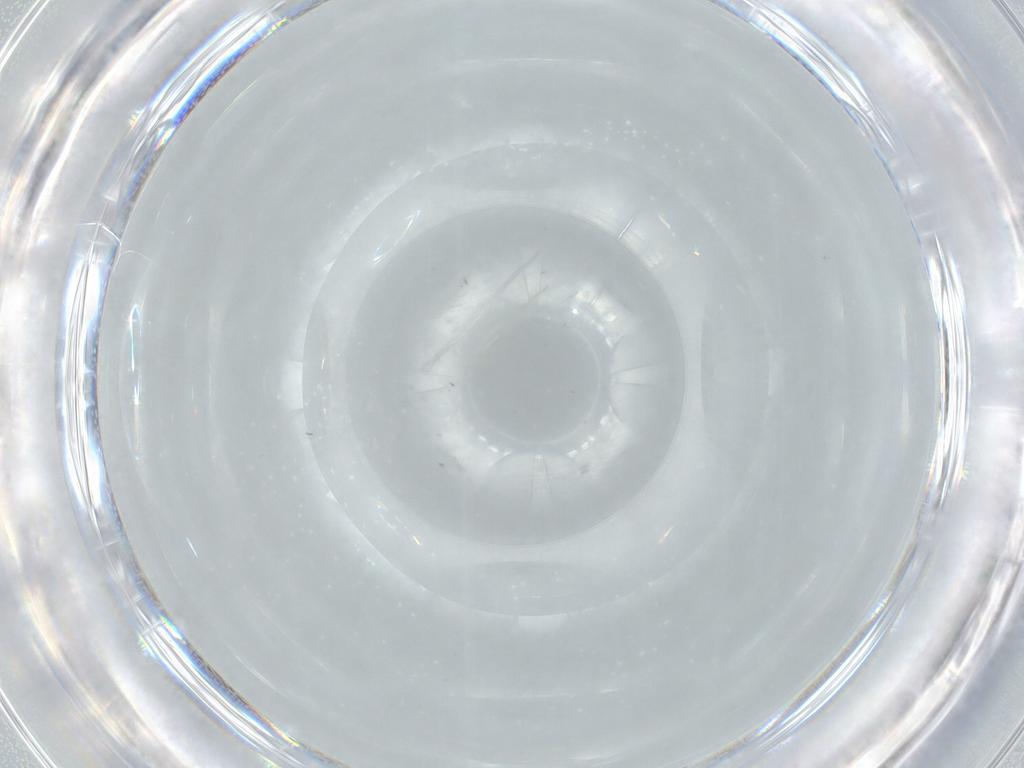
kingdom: Animalia
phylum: Arthropoda
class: Insecta
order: Hymenoptera
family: Mymaridae
